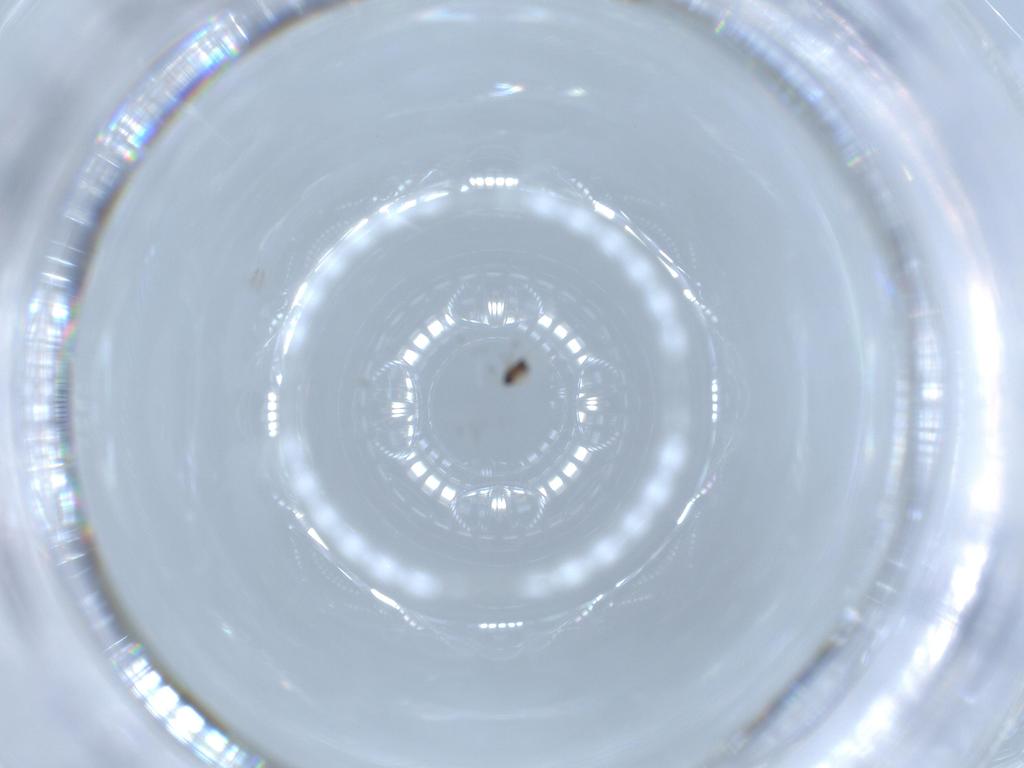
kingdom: Animalia
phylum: Arthropoda
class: Insecta
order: Hymenoptera
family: Mymaridae
